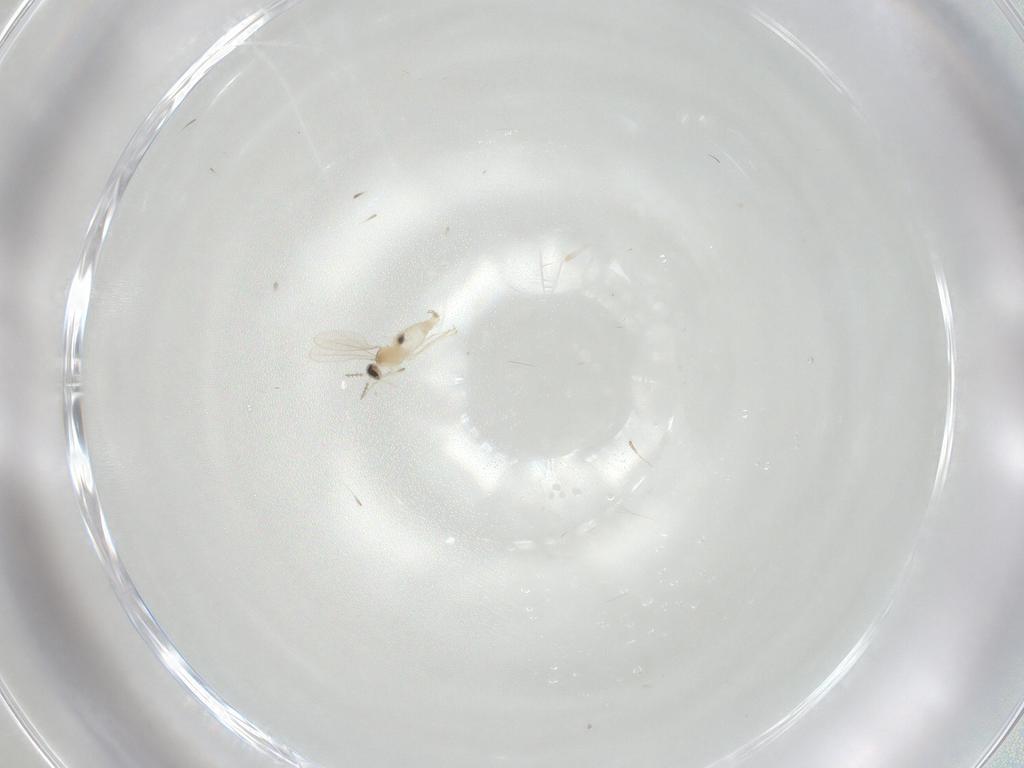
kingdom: Animalia
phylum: Arthropoda
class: Insecta
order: Diptera
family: Cecidomyiidae
